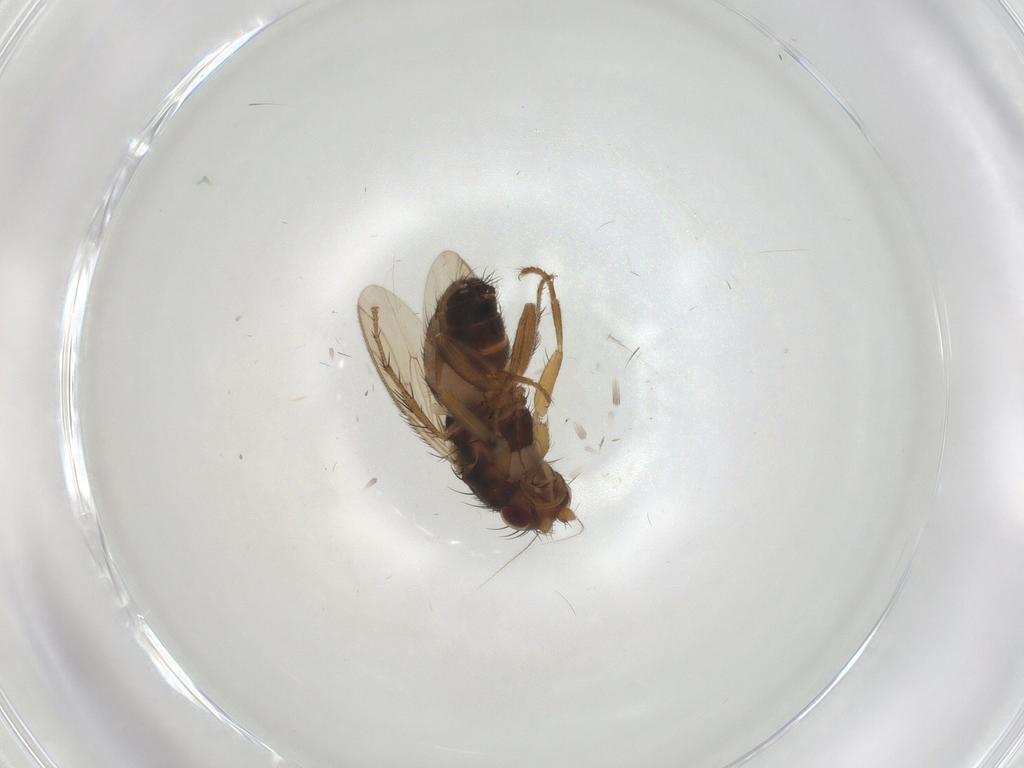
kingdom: Animalia
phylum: Arthropoda
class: Insecta
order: Diptera
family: Sphaeroceridae
